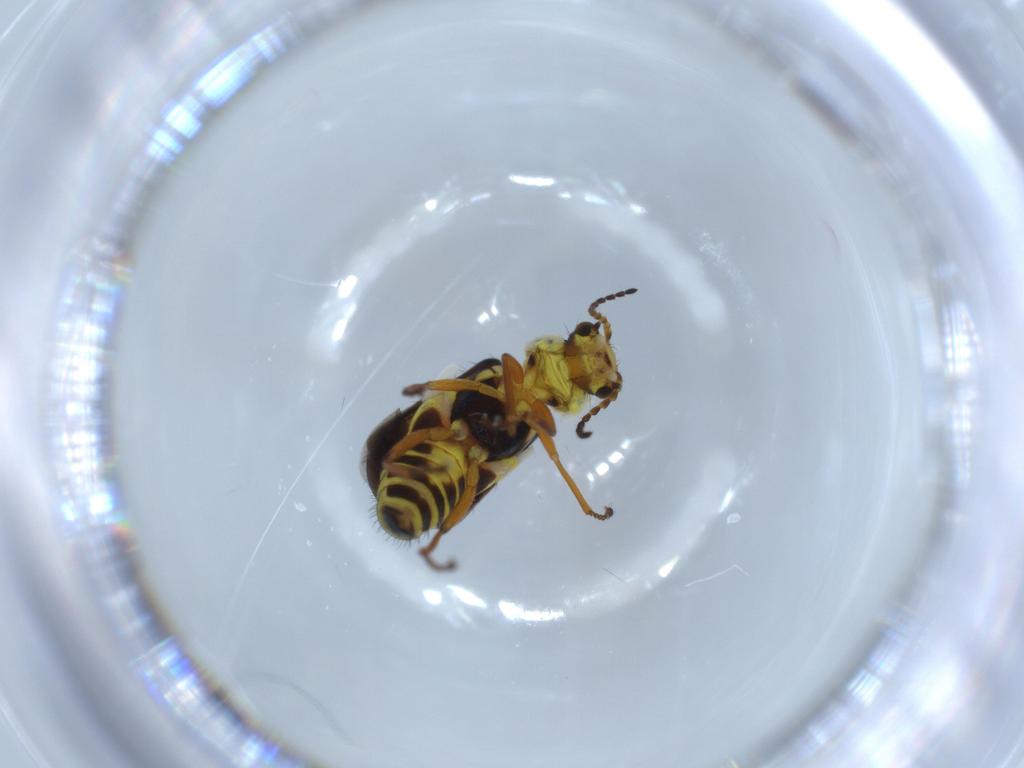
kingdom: Animalia
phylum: Arthropoda
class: Insecta
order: Coleoptera
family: Melyridae
